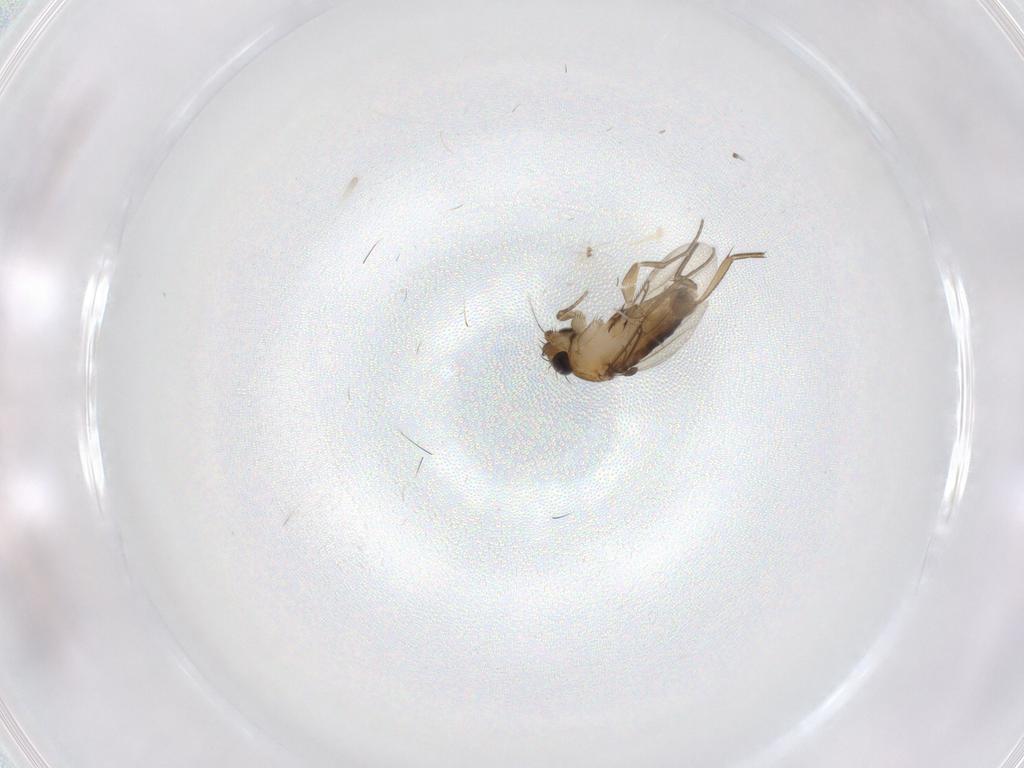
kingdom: Animalia
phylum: Arthropoda
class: Insecta
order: Diptera
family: Phoridae
